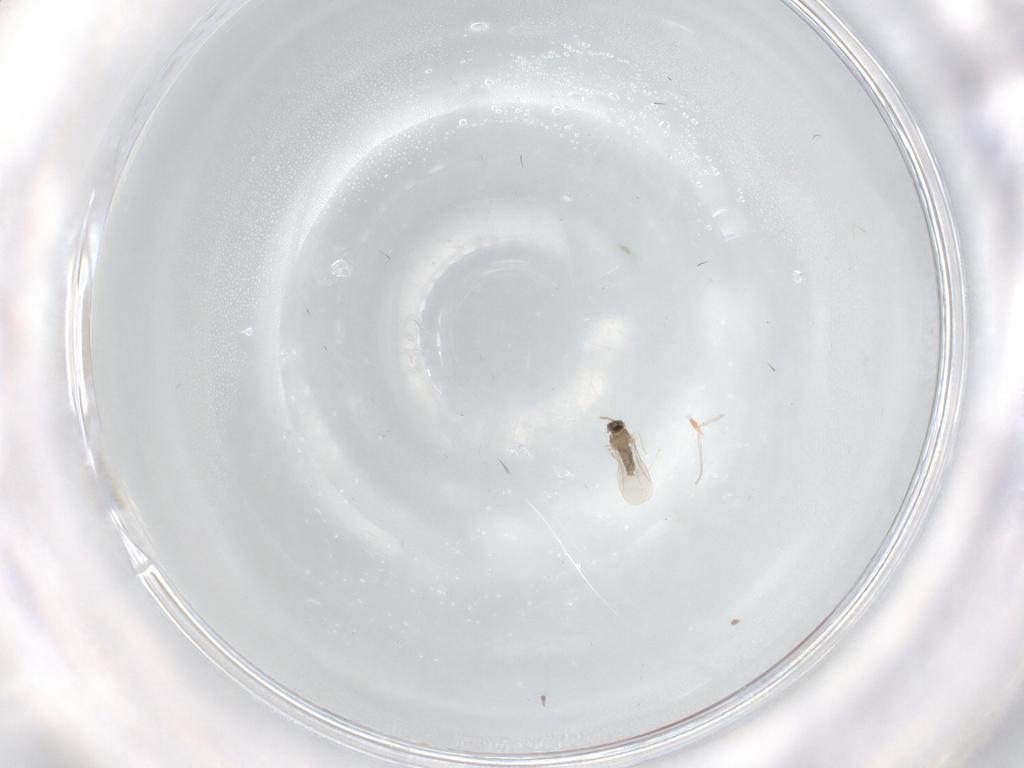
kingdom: Animalia
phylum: Arthropoda
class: Insecta
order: Diptera
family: Cecidomyiidae
